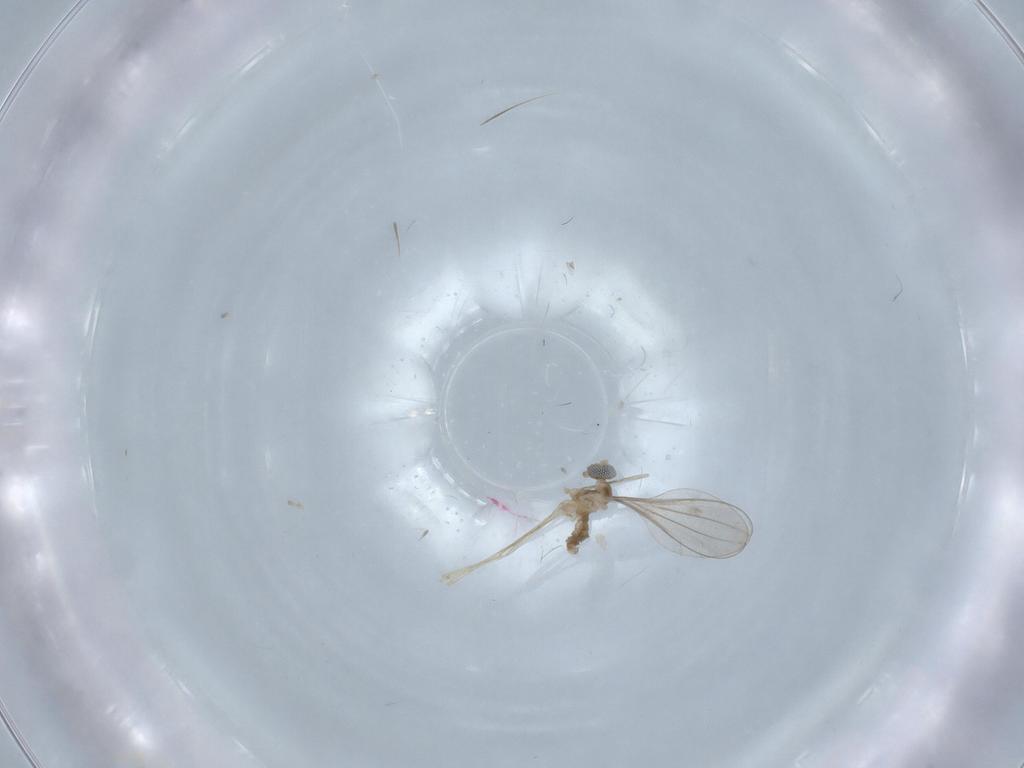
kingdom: Animalia
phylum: Arthropoda
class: Insecta
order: Diptera
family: Cecidomyiidae
